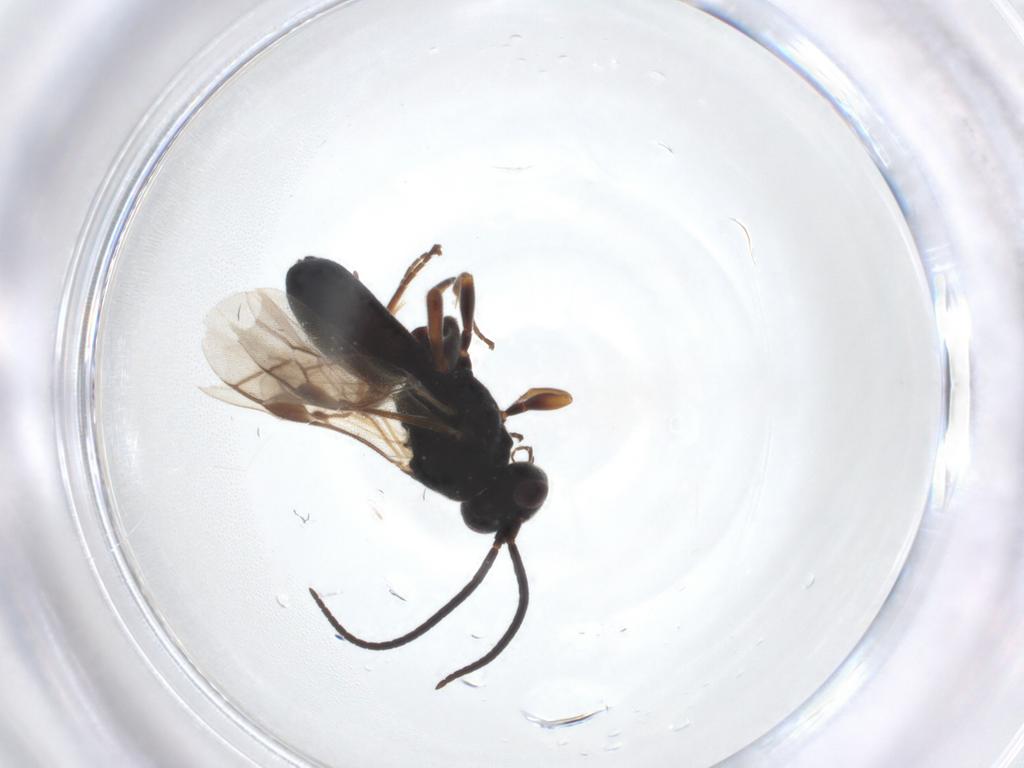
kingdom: Animalia
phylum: Arthropoda
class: Insecta
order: Hymenoptera
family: Braconidae
